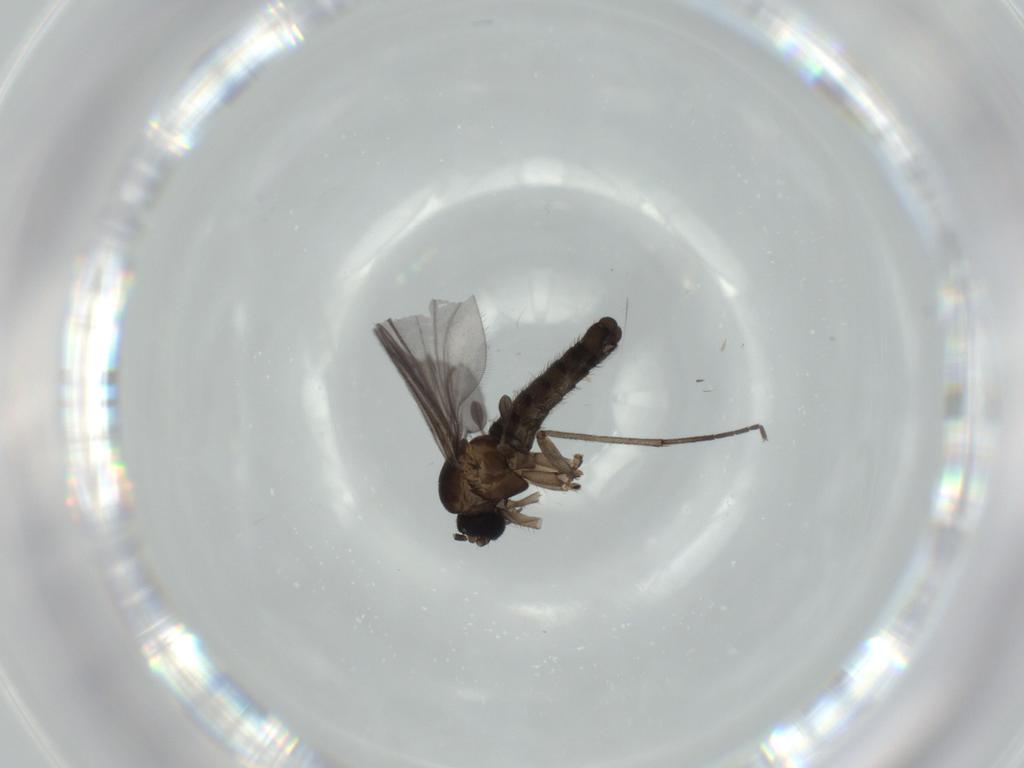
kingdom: Animalia
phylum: Arthropoda
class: Insecta
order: Diptera
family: Sciaridae
